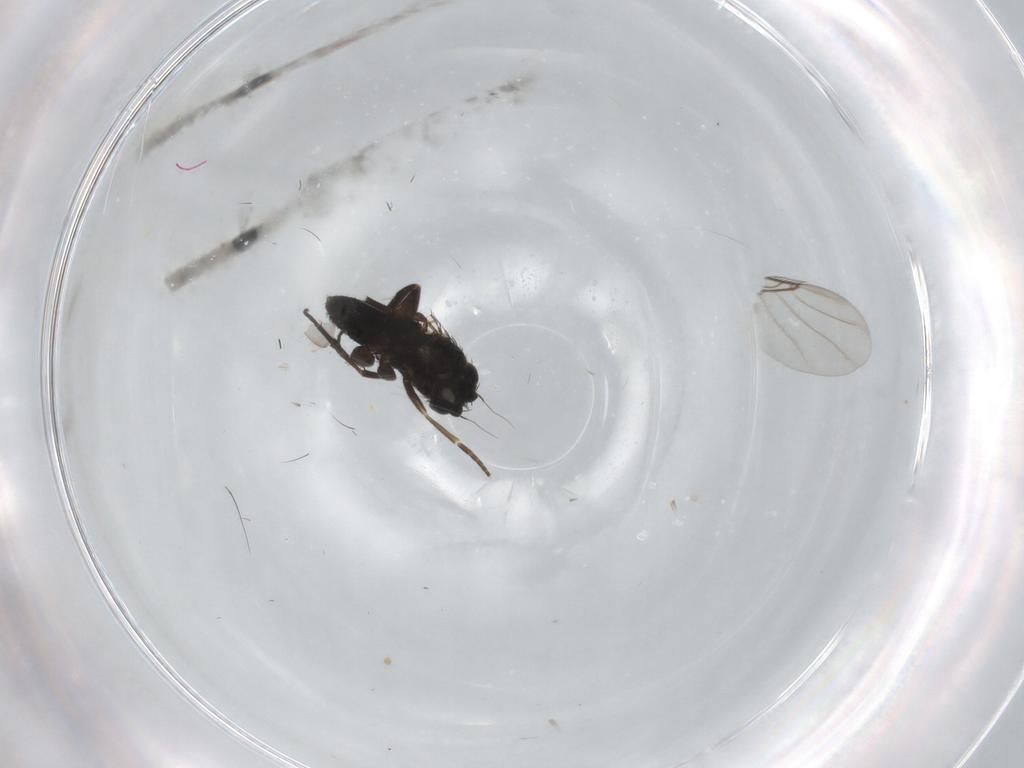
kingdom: Animalia
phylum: Arthropoda
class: Insecta
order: Diptera
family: Phoridae
